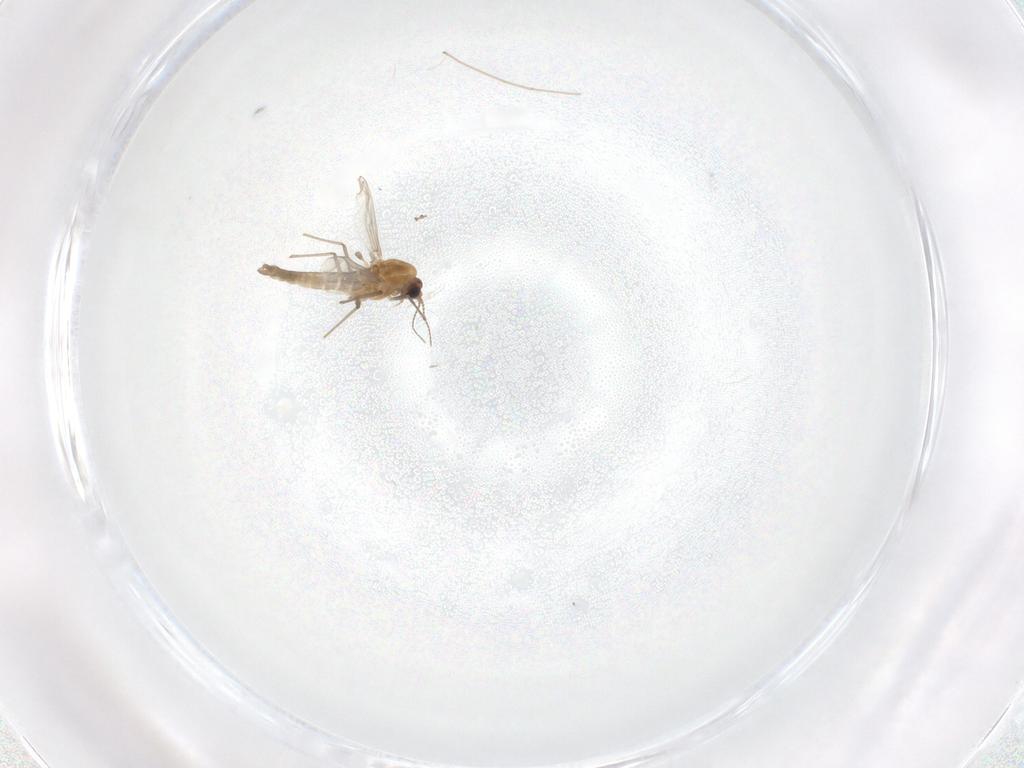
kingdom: Animalia
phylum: Arthropoda
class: Insecta
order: Diptera
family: Chironomidae
